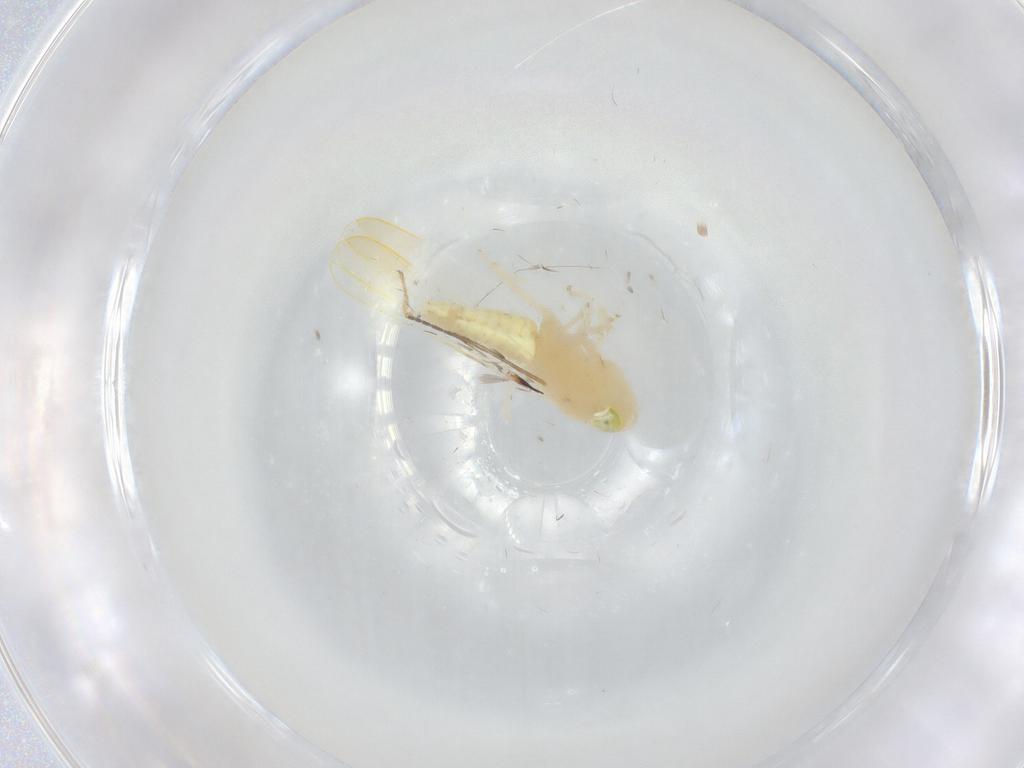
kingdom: Animalia
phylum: Arthropoda
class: Insecta
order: Hemiptera
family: Cicadellidae
